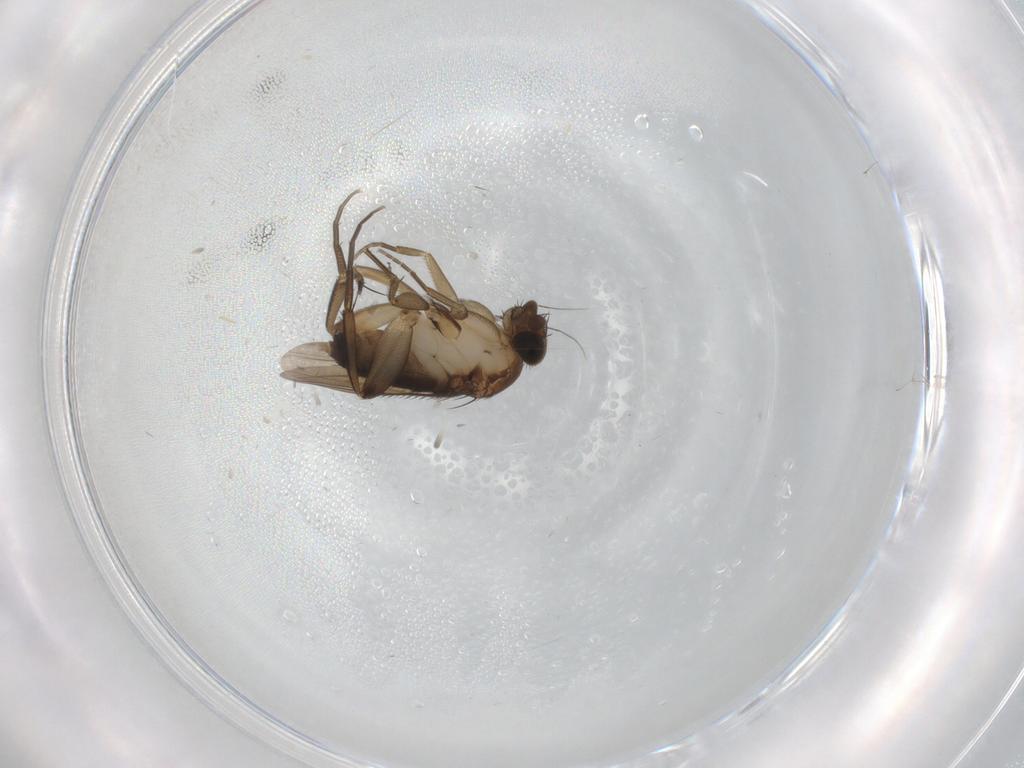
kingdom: Animalia
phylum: Arthropoda
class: Insecta
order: Diptera
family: Phoridae
